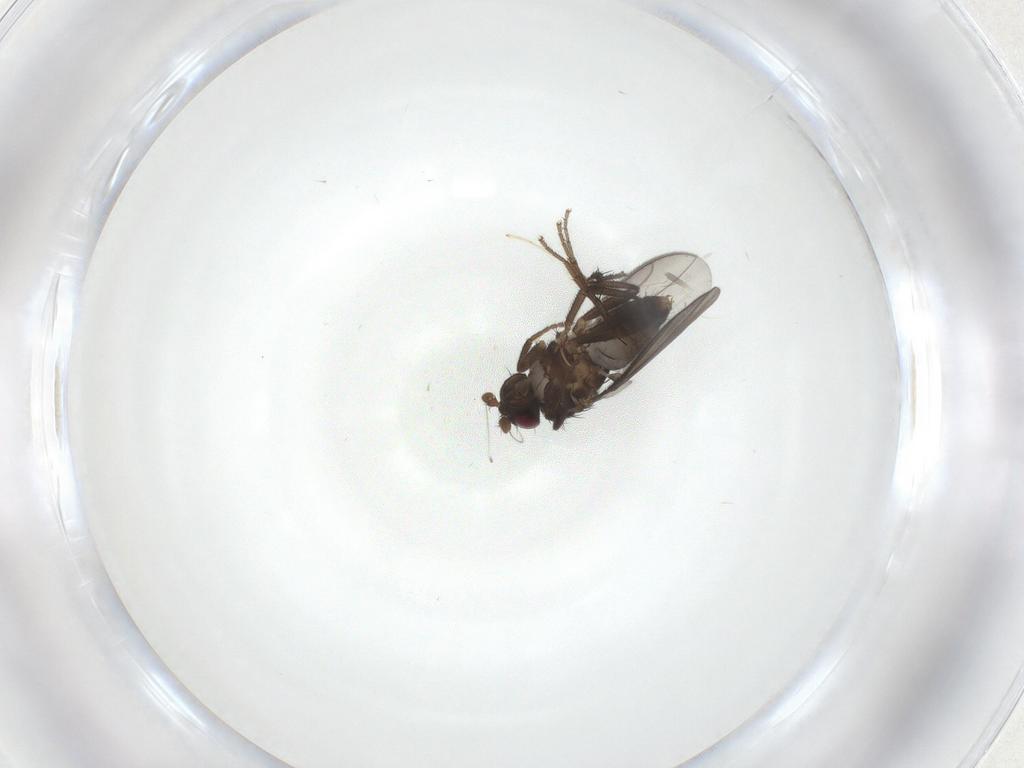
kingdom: Animalia
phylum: Arthropoda
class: Insecta
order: Diptera
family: Sphaeroceridae
